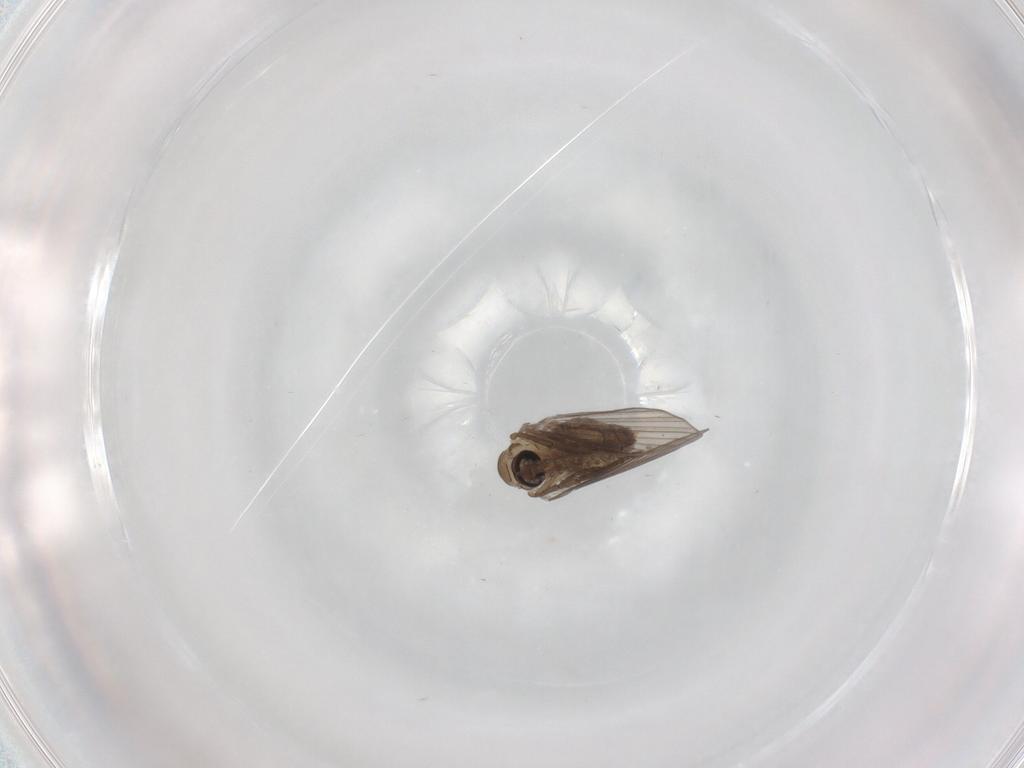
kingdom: Animalia
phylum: Arthropoda
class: Insecta
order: Diptera
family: Psychodidae
